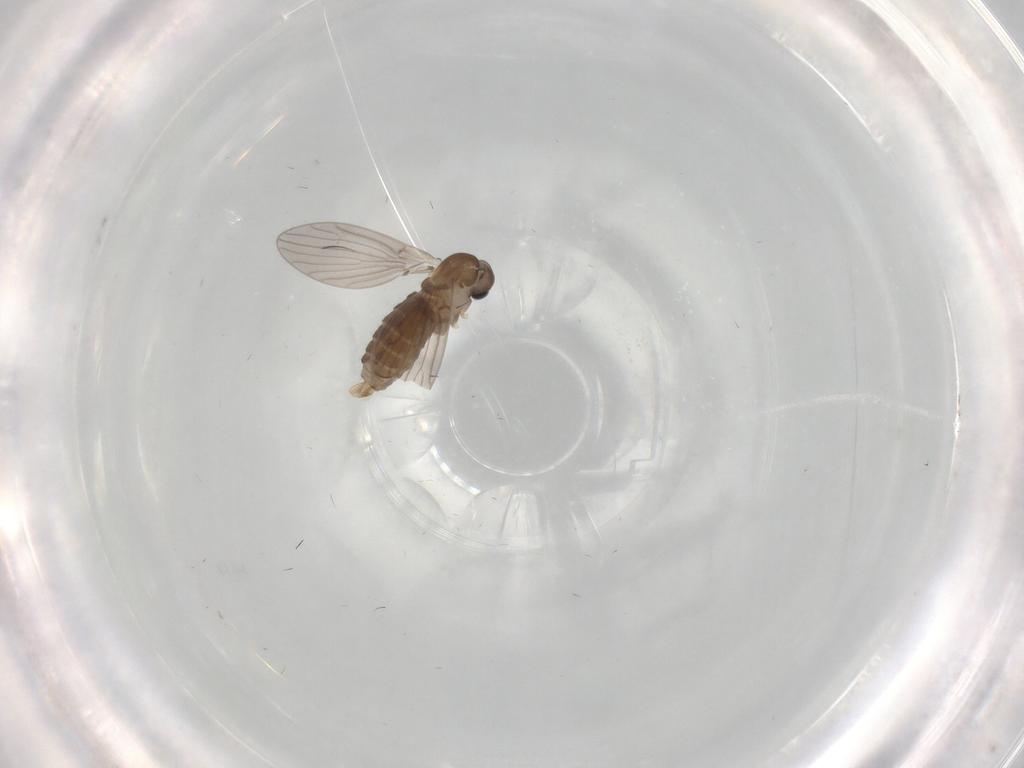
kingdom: Animalia
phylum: Arthropoda
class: Insecta
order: Diptera
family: Psychodidae
